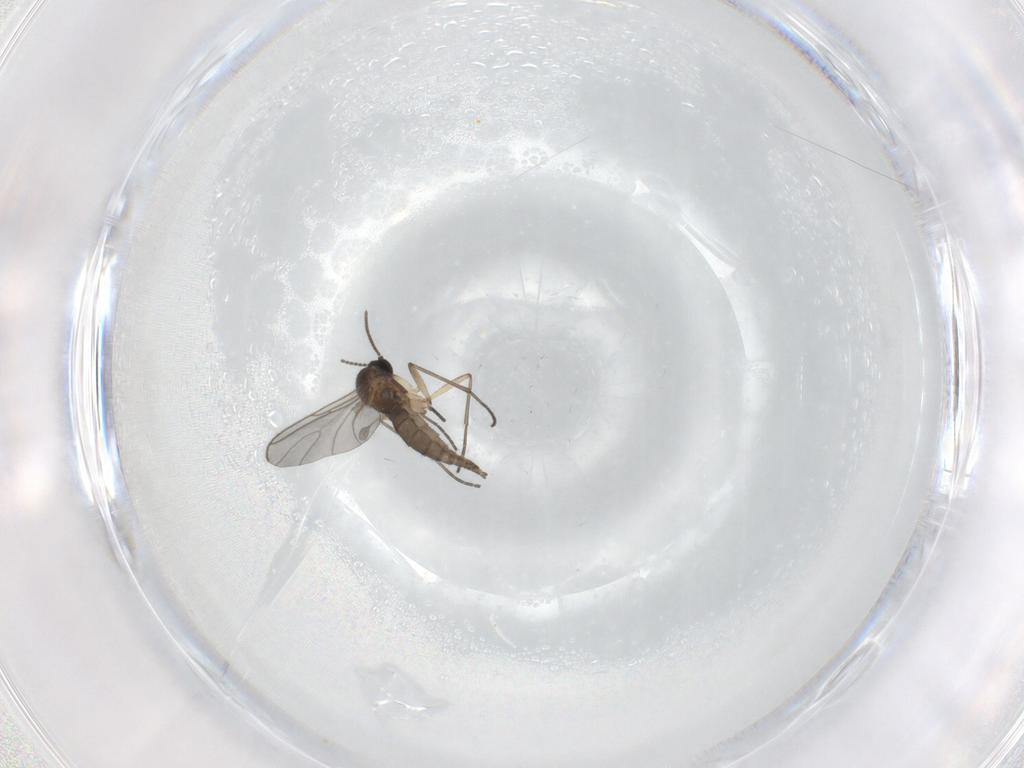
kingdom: Animalia
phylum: Arthropoda
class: Insecta
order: Diptera
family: Sciaridae
